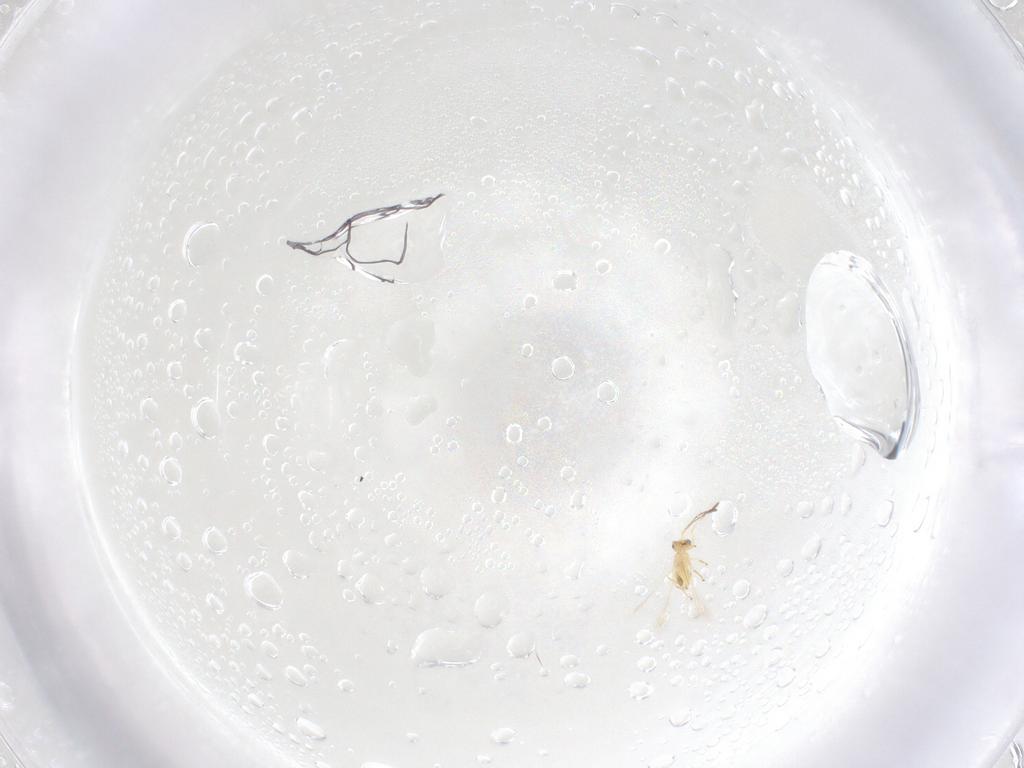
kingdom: Animalia
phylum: Arthropoda
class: Insecta
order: Hymenoptera
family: Mymaridae
